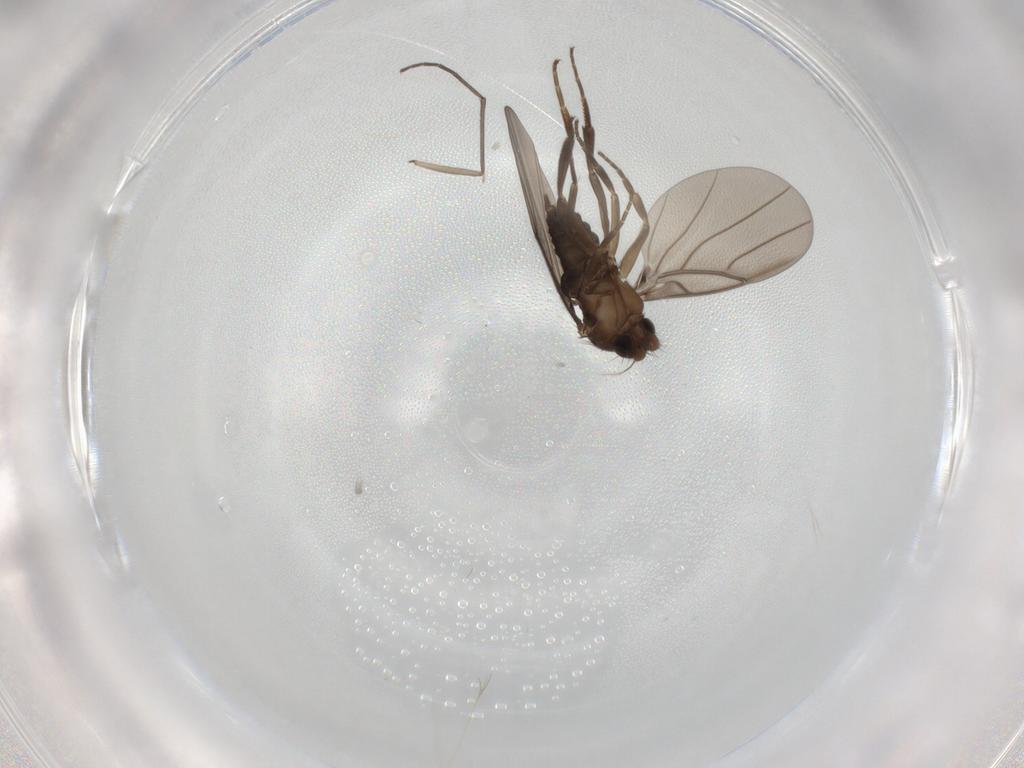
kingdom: Animalia
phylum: Arthropoda
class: Insecta
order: Diptera
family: Phoridae
